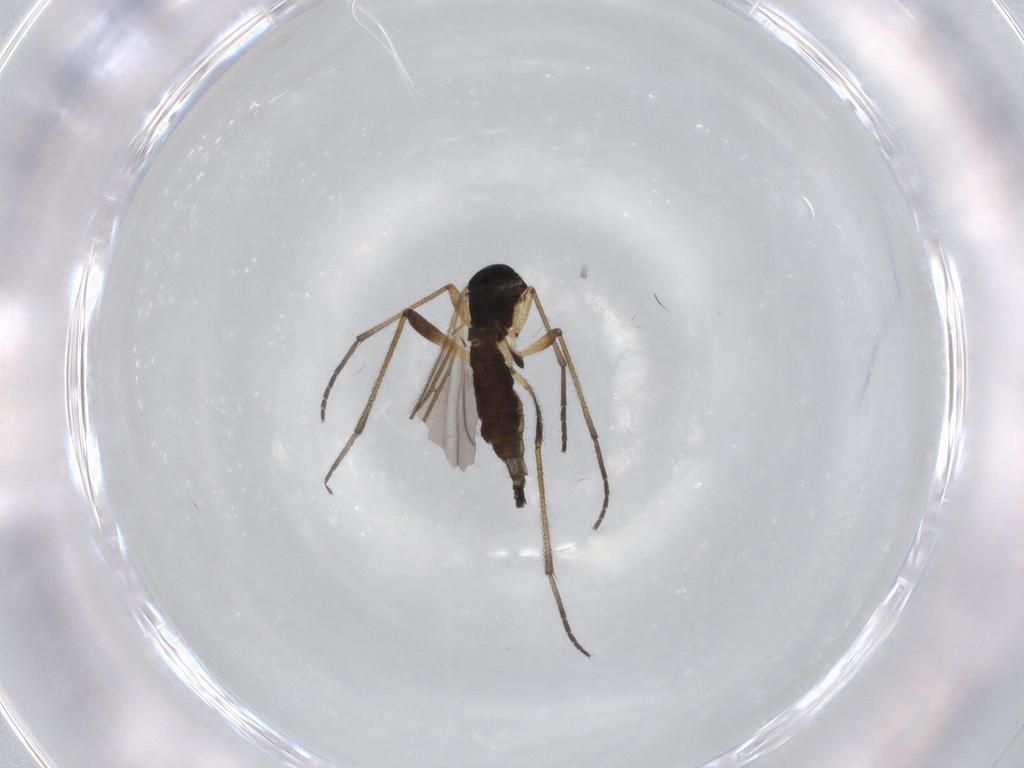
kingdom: Animalia
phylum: Arthropoda
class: Insecta
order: Diptera
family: Sciaridae
